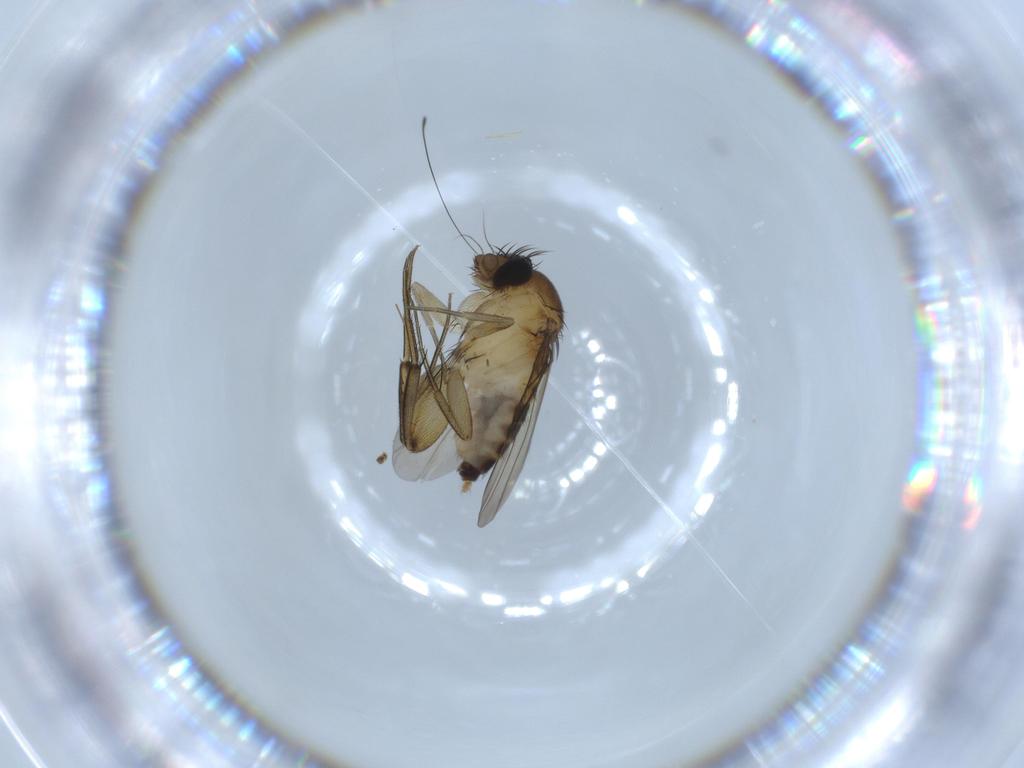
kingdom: Animalia
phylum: Arthropoda
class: Insecta
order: Diptera
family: Phoridae
